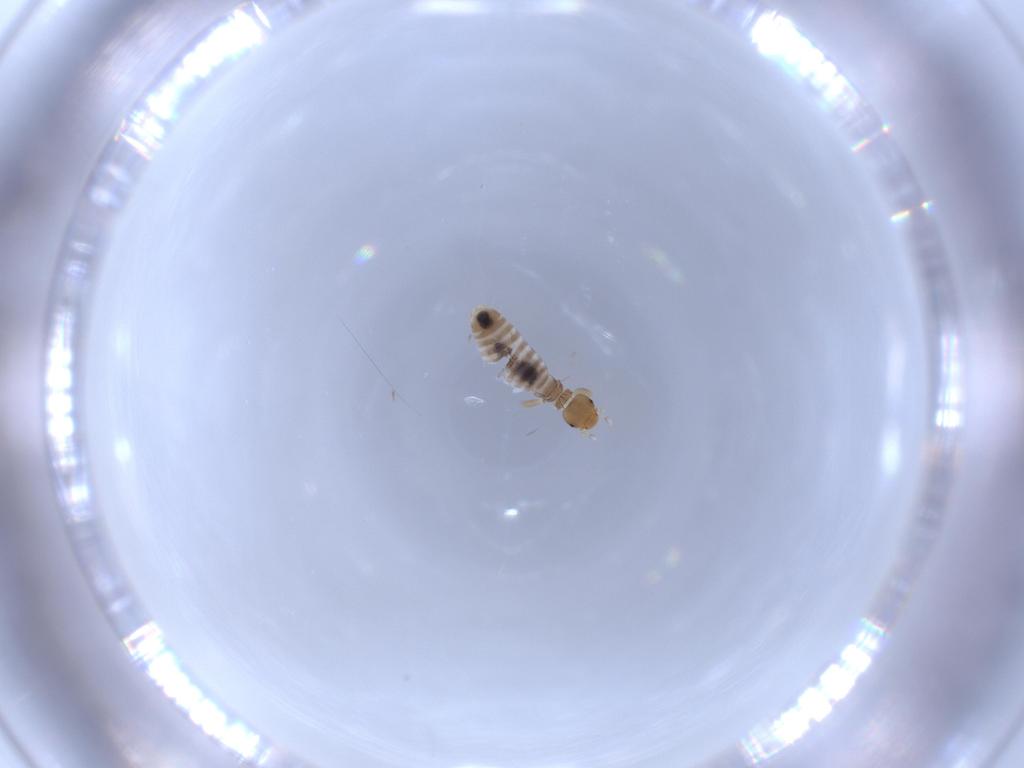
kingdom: Animalia
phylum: Arthropoda
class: Insecta
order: Psocodea
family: Liposcelididae
